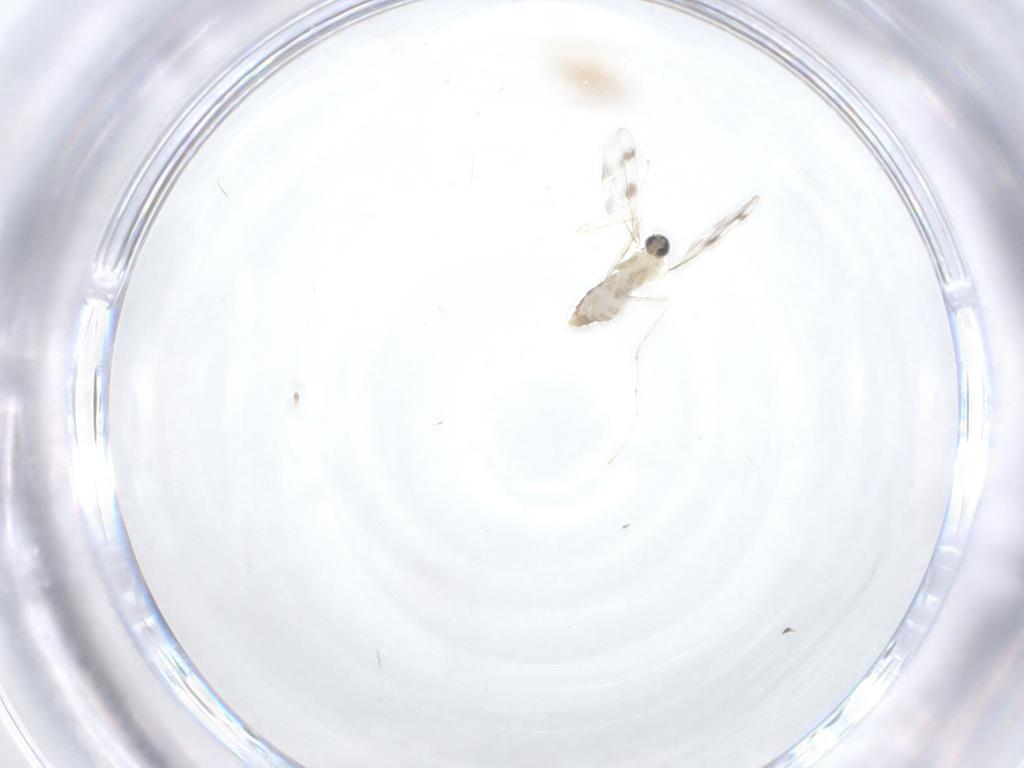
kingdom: Animalia
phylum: Arthropoda
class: Insecta
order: Diptera
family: Cecidomyiidae
